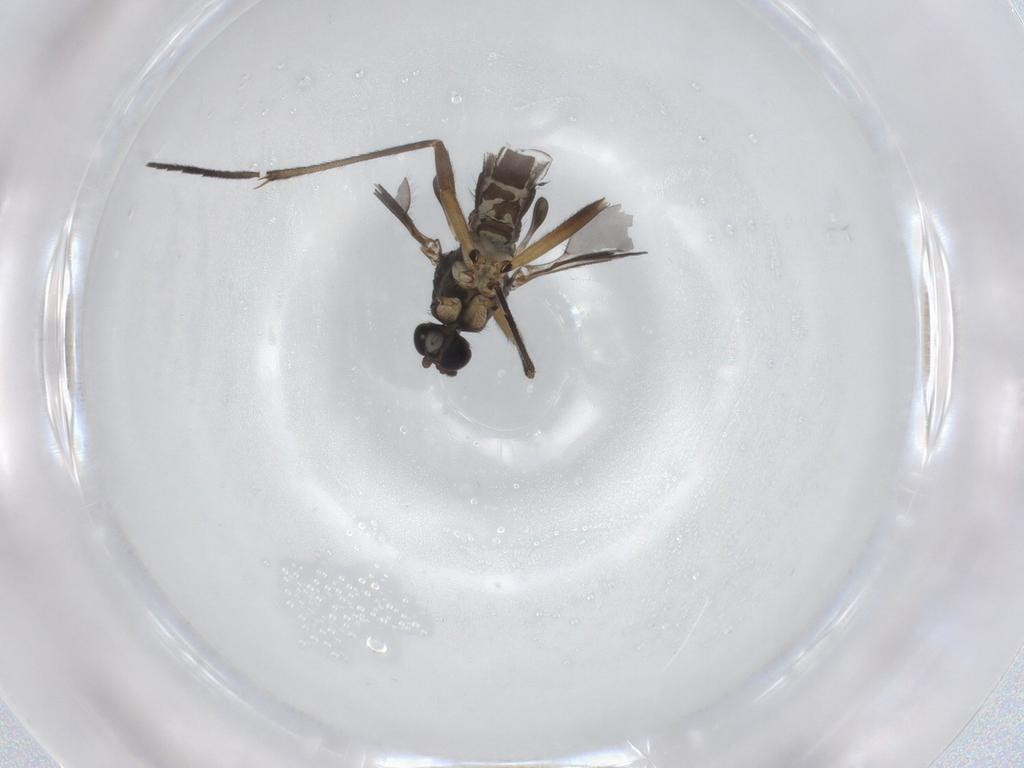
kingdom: Animalia
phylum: Arthropoda
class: Insecta
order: Diptera
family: Sciaridae
